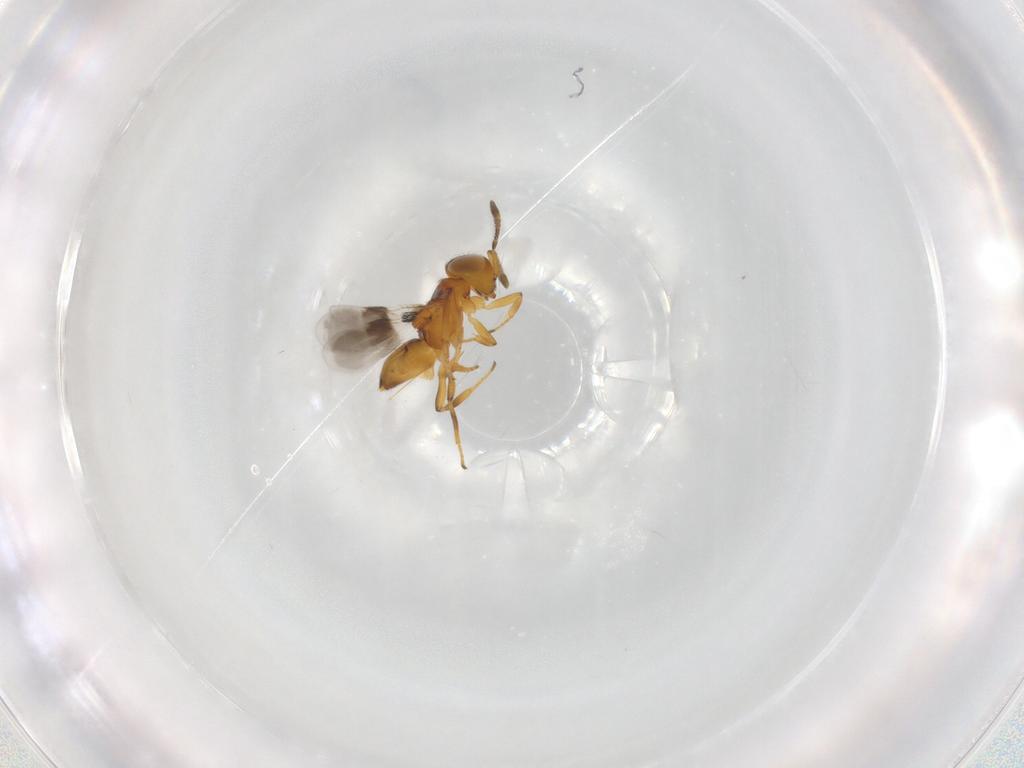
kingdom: Animalia
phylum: Arthropoda
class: Insecta
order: Hymenoptera
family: Encyrtidae
